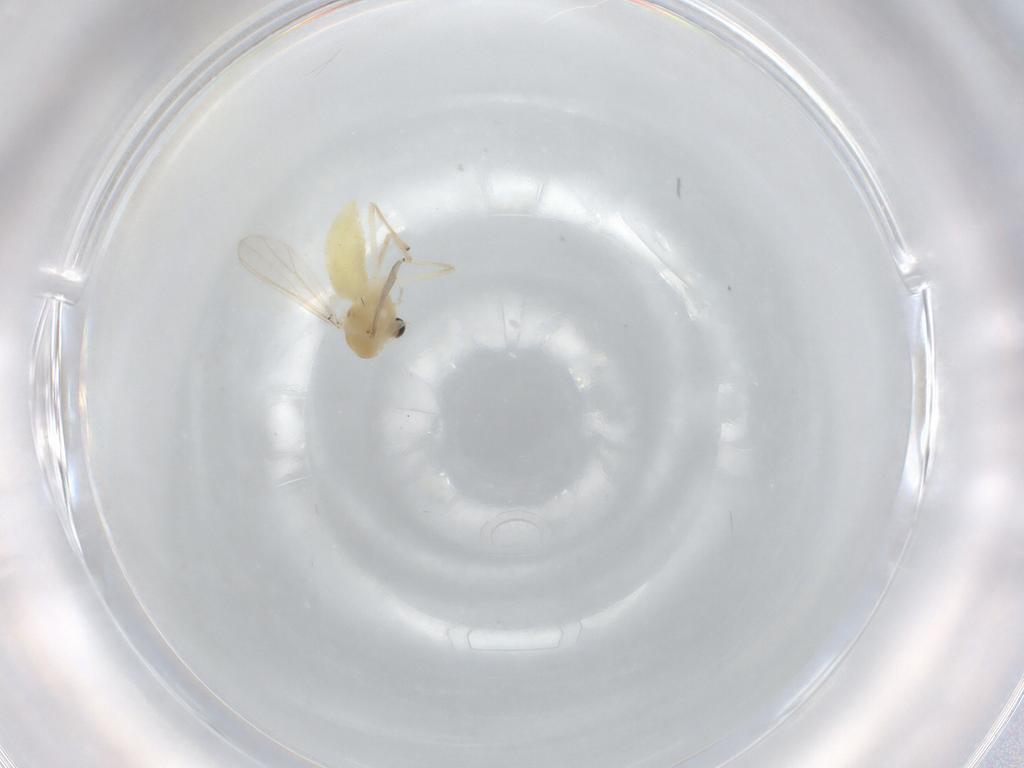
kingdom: Animalia
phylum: Arthropoda
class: Insecta
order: Diptera
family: Chironomidae
